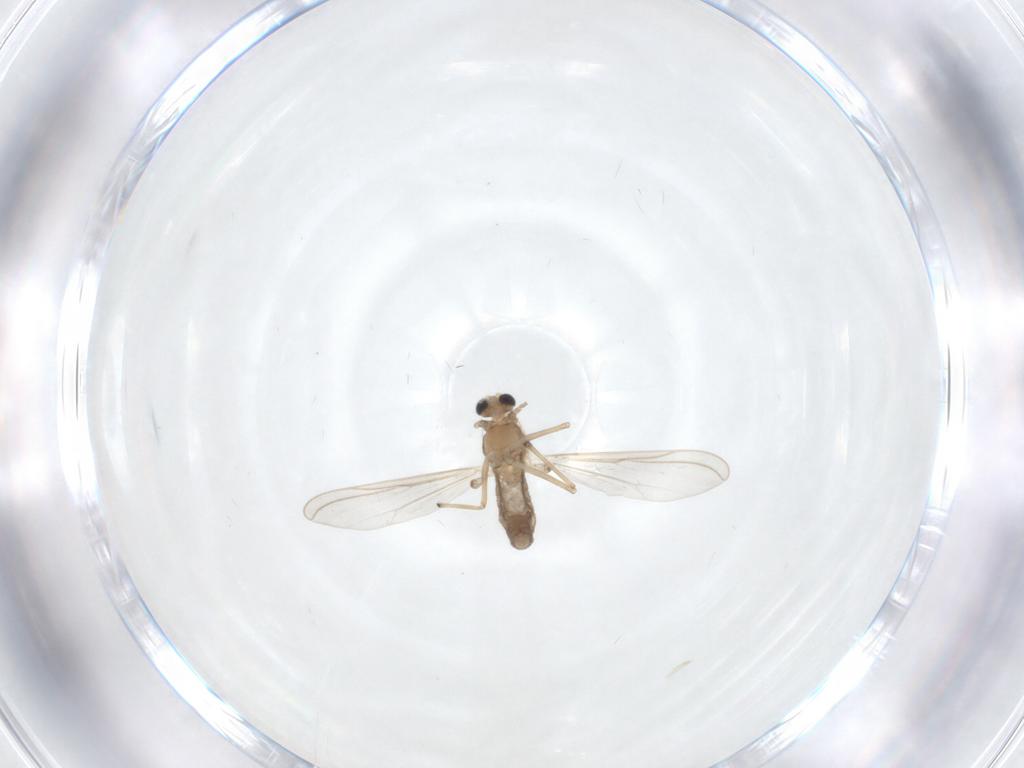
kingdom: Animalia
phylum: Arthropoda
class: Insecta
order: Diptera
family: Chironomidae
